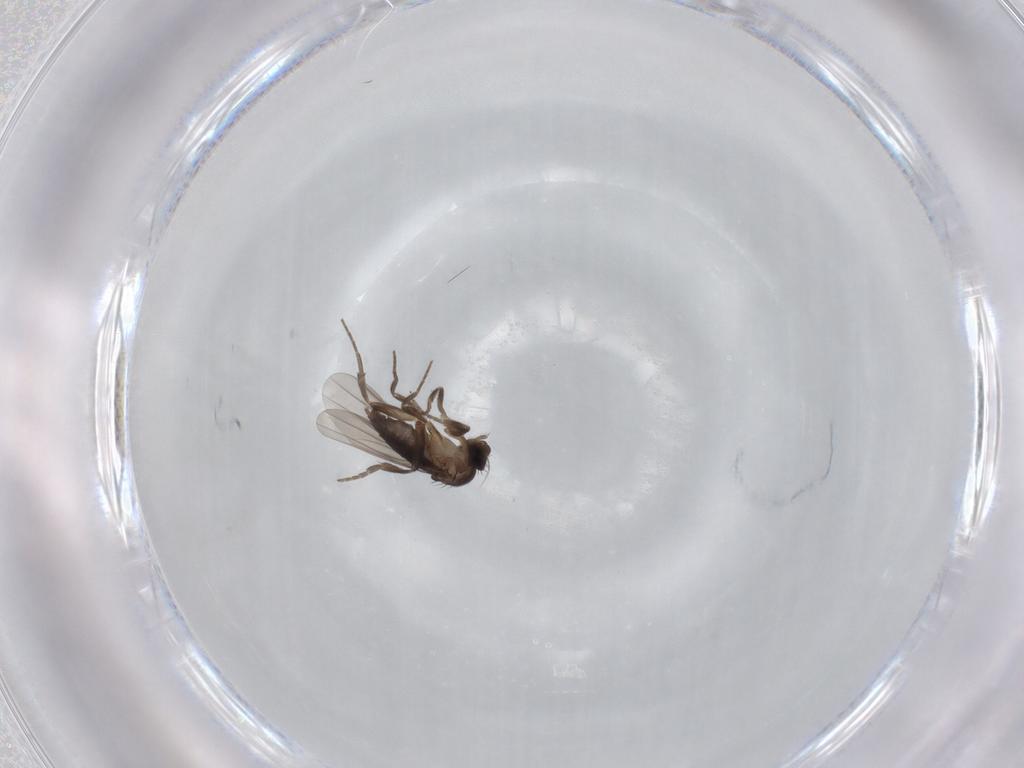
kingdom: Animalia
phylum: Arthropoda
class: Insecta
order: Diptera
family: Phoridae
